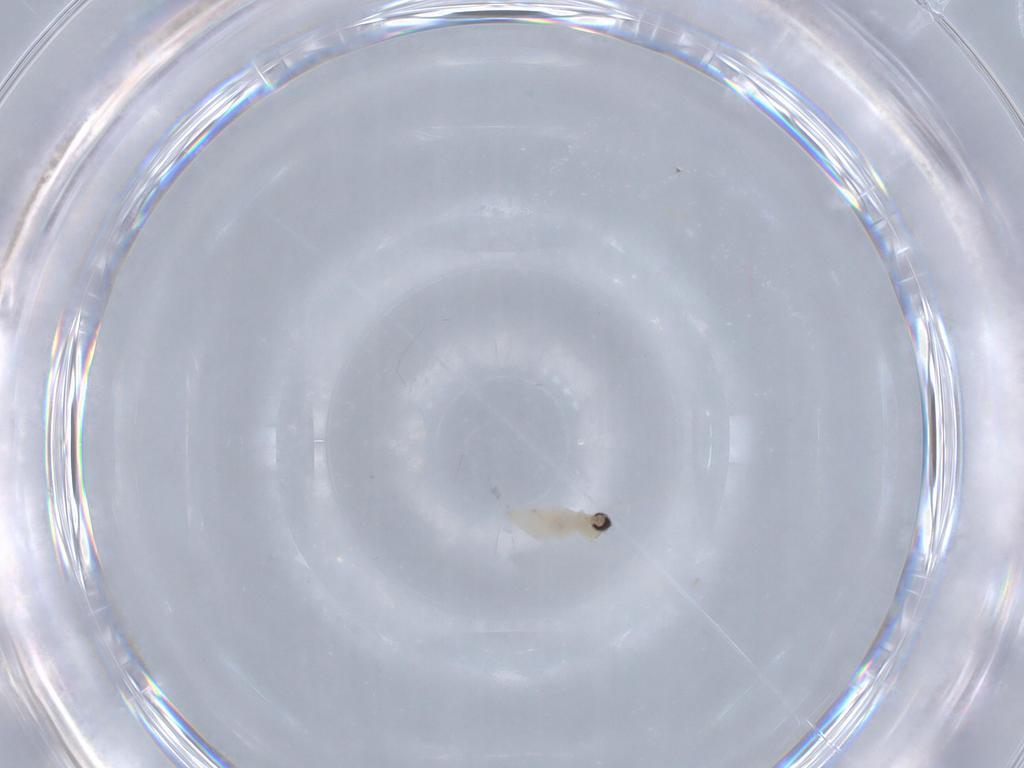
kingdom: Animalia
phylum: Arthropoda
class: Insecta
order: Diptera
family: Psychodidae
